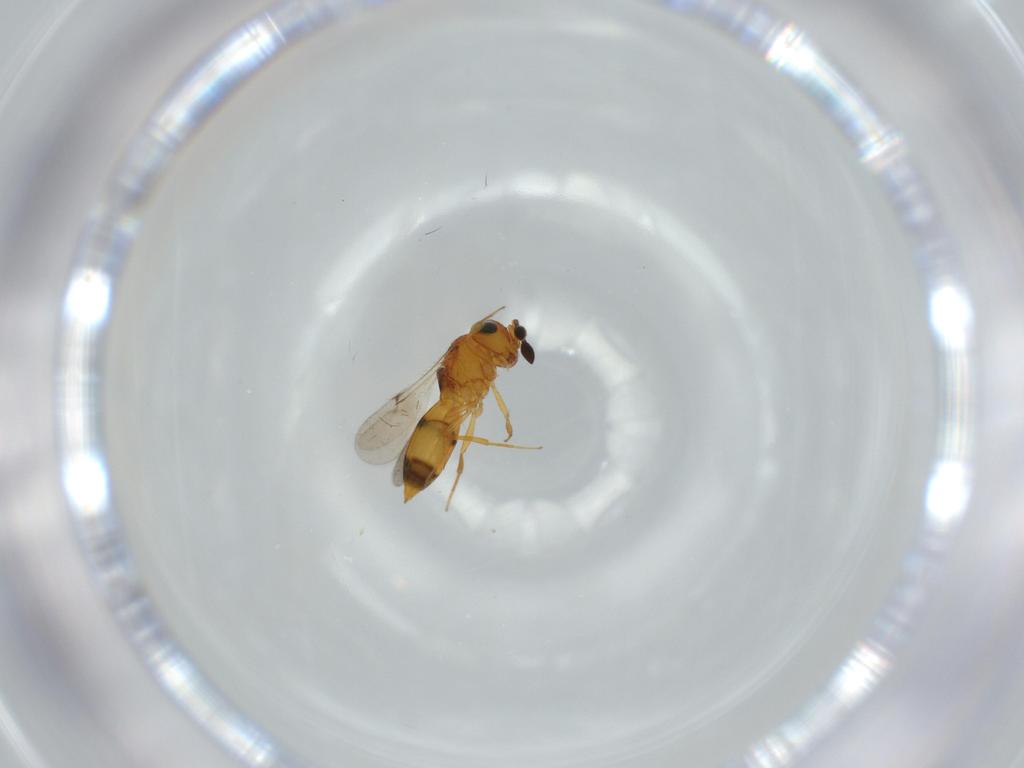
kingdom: Animalia
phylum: Arthropoda
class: Insecta
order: Hymenoptera
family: Scelionidae
